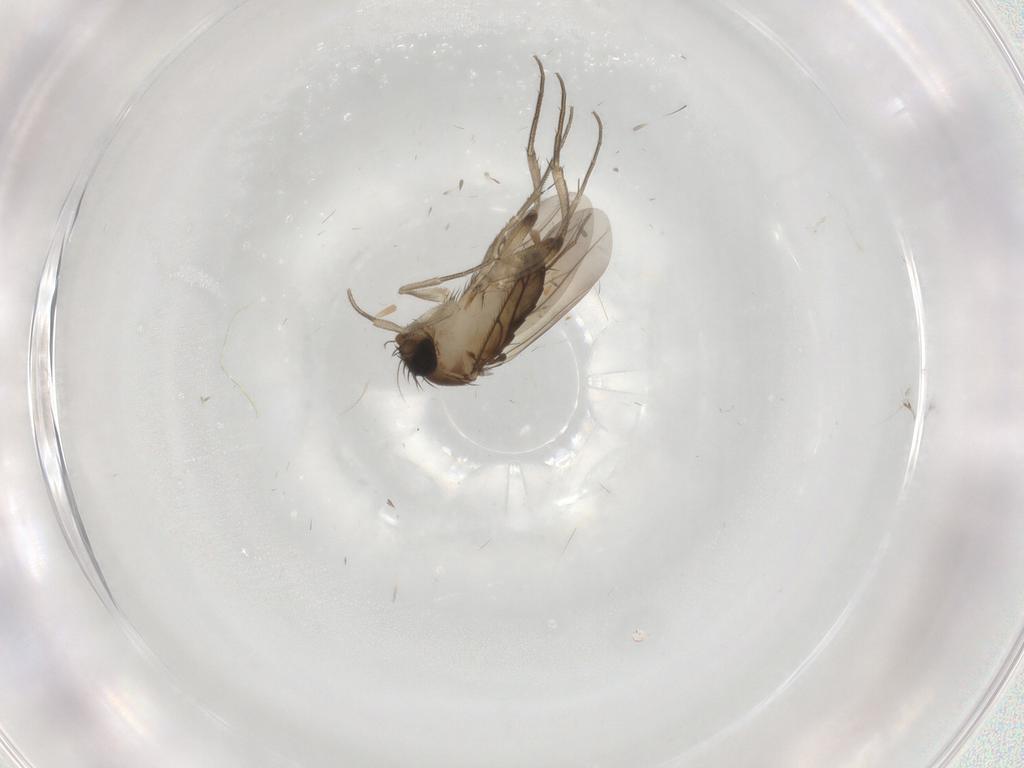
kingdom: Animalia
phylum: Arthropoda
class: Insecta
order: Diptera
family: Phoridae
